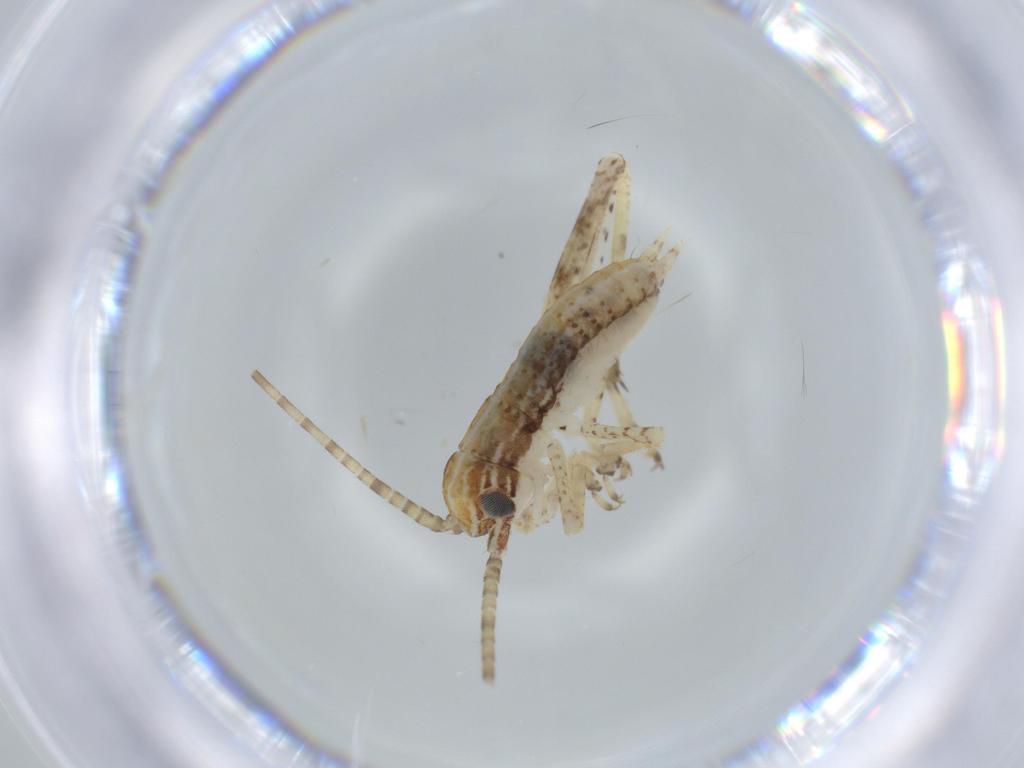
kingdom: Animalia
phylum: Arthropoda
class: Insecta
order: Orthoptera
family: Gryllidae
